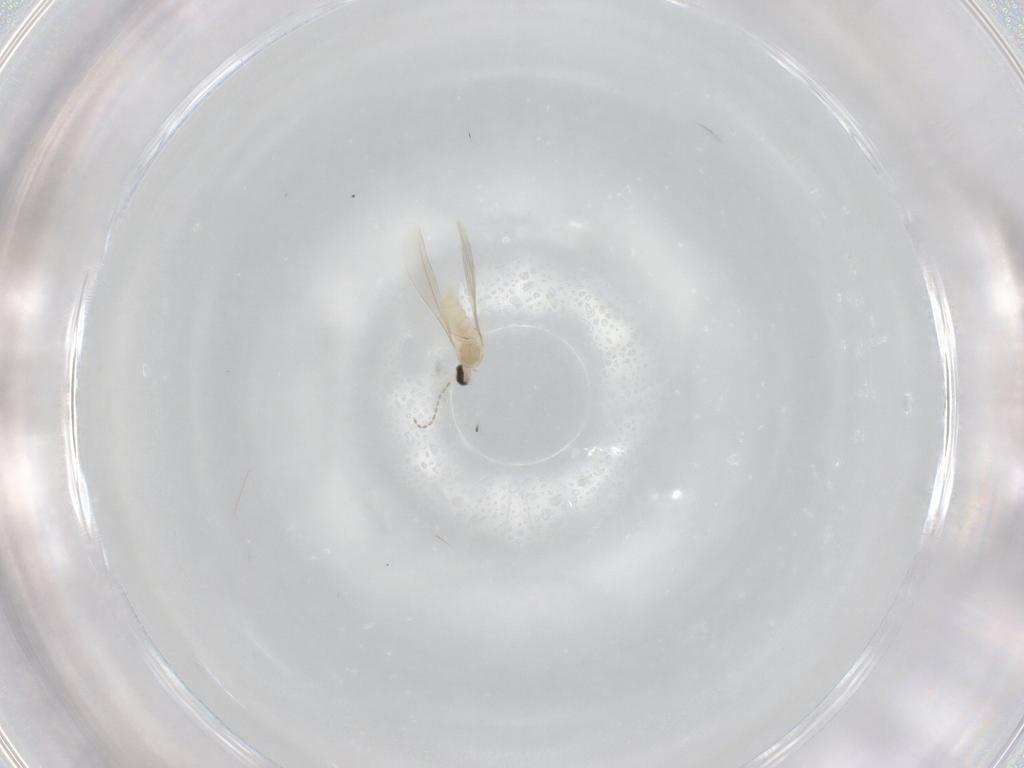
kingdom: Animalia
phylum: Arthropoda
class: Insecta
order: Diptera
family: Cecidomyiidae
